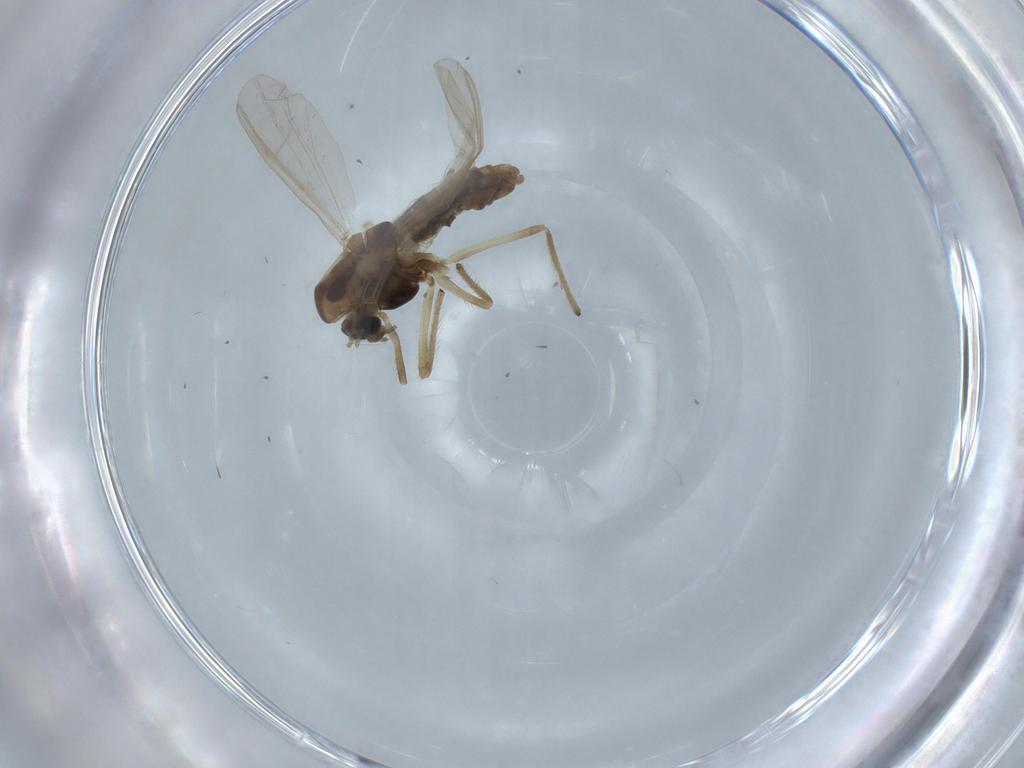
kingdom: Animalia
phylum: Arthropoda
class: Insecta
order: Diptera
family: Chironomidae
